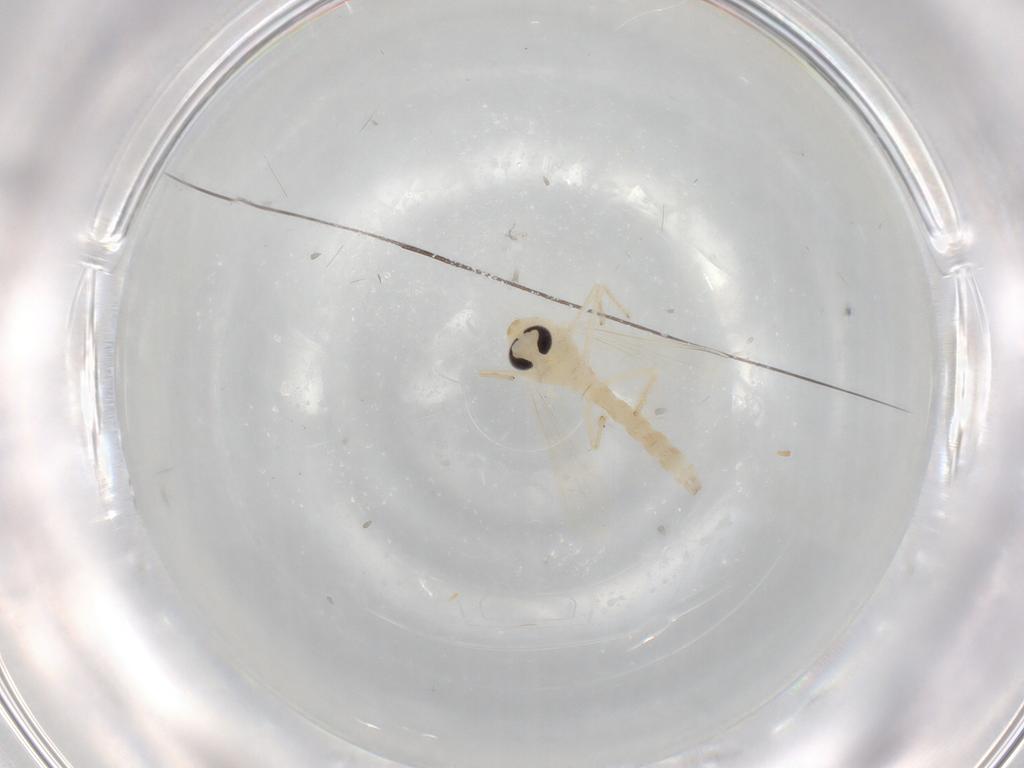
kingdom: Animalia
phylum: Arthropoda
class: Insecta
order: Diptera
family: Chironomidae
